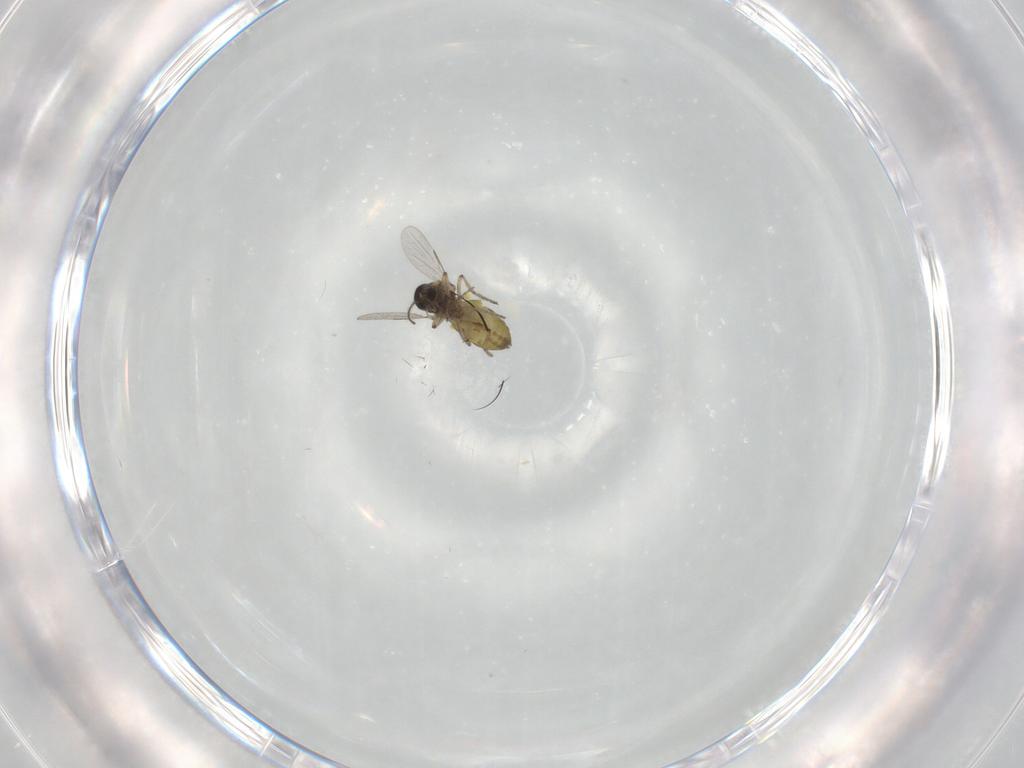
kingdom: Animalia
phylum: Arthropoda
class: Insecta
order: Diptera
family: Ceratopogonidae
